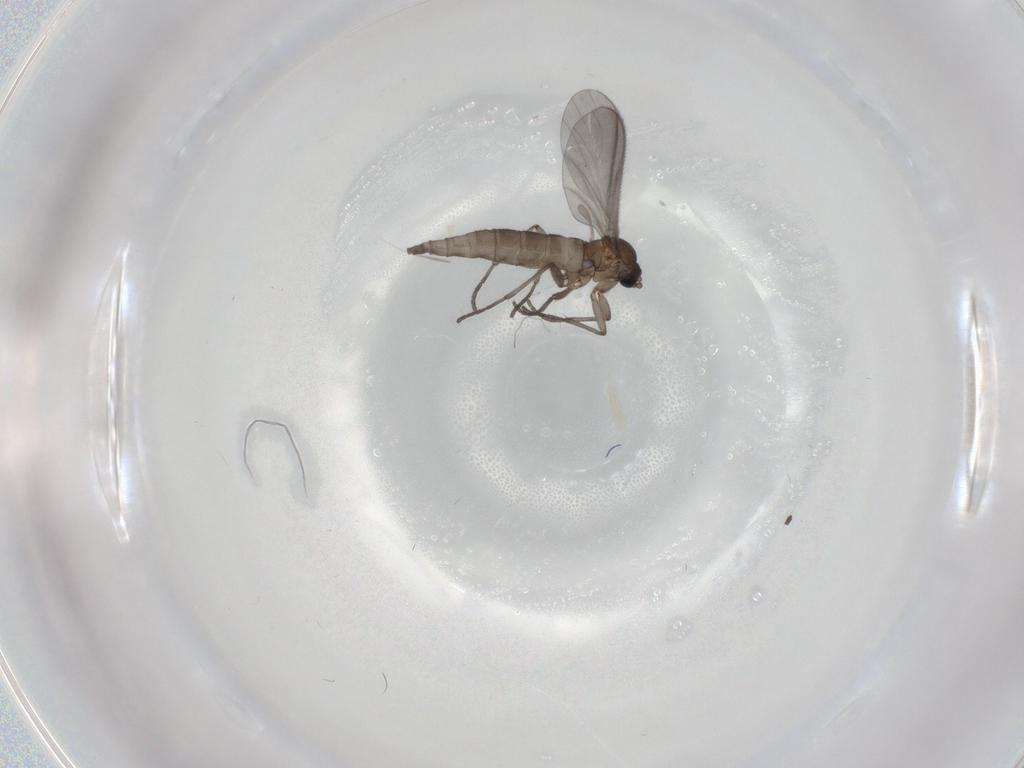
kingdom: Animalia
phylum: Arthropoda
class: Insecta
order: Diptera
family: Sciaridae
